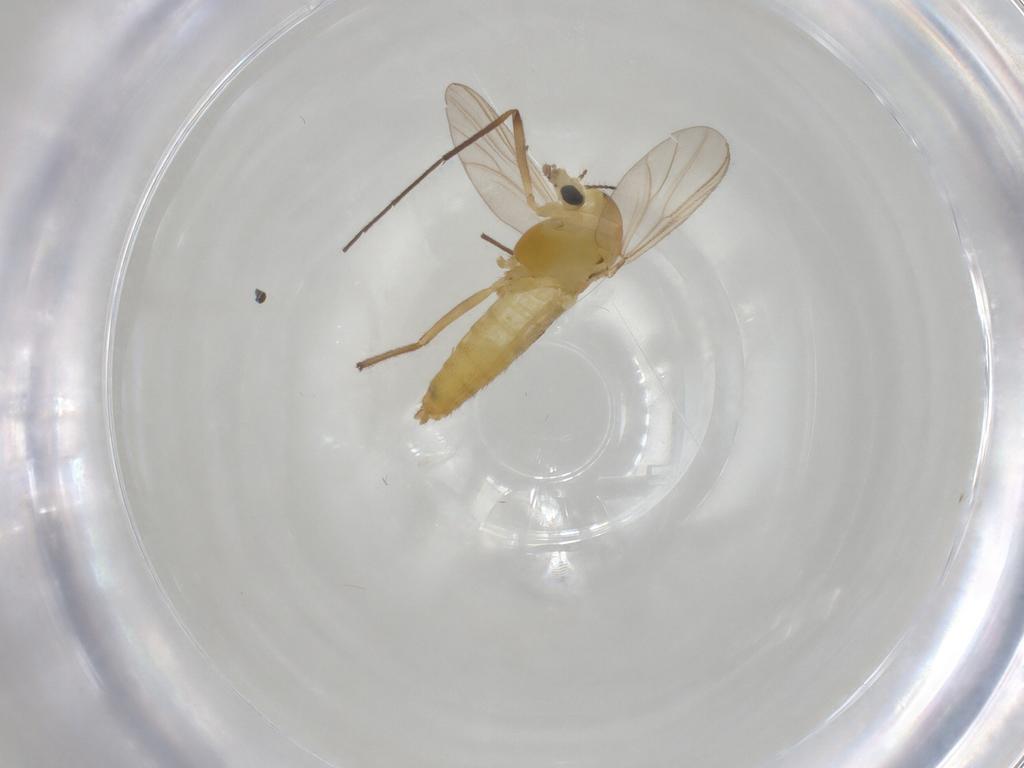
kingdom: Animalia
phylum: Arthropoda
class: Insecta
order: Diptera
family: Chironomidae
